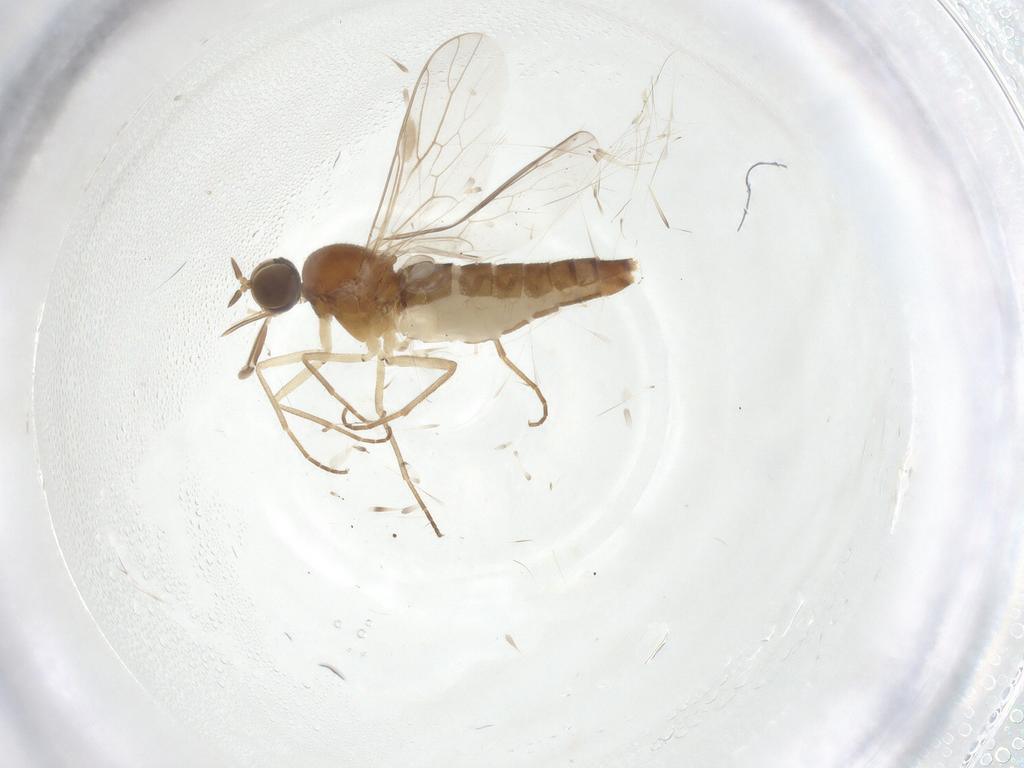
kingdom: Animalia
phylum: Arthropoda
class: Insecta
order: Diptera
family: Scenopinidae
